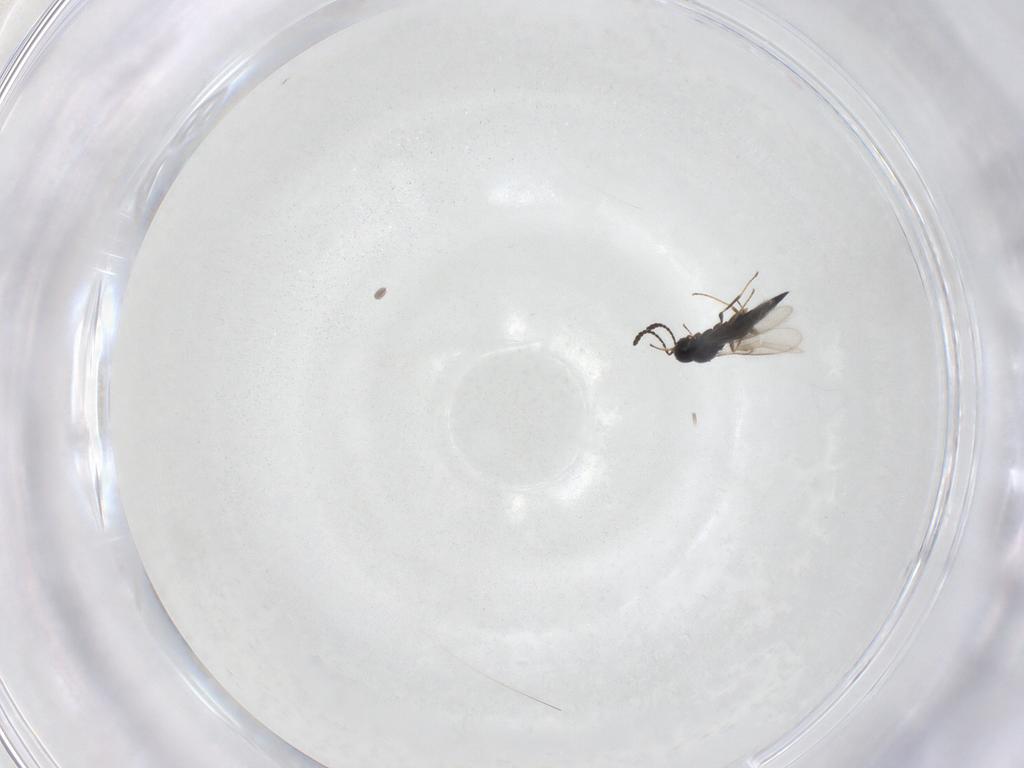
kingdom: Animalia
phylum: Arthropoda
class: Insecta
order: Hymenoptera
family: Scelionidae
